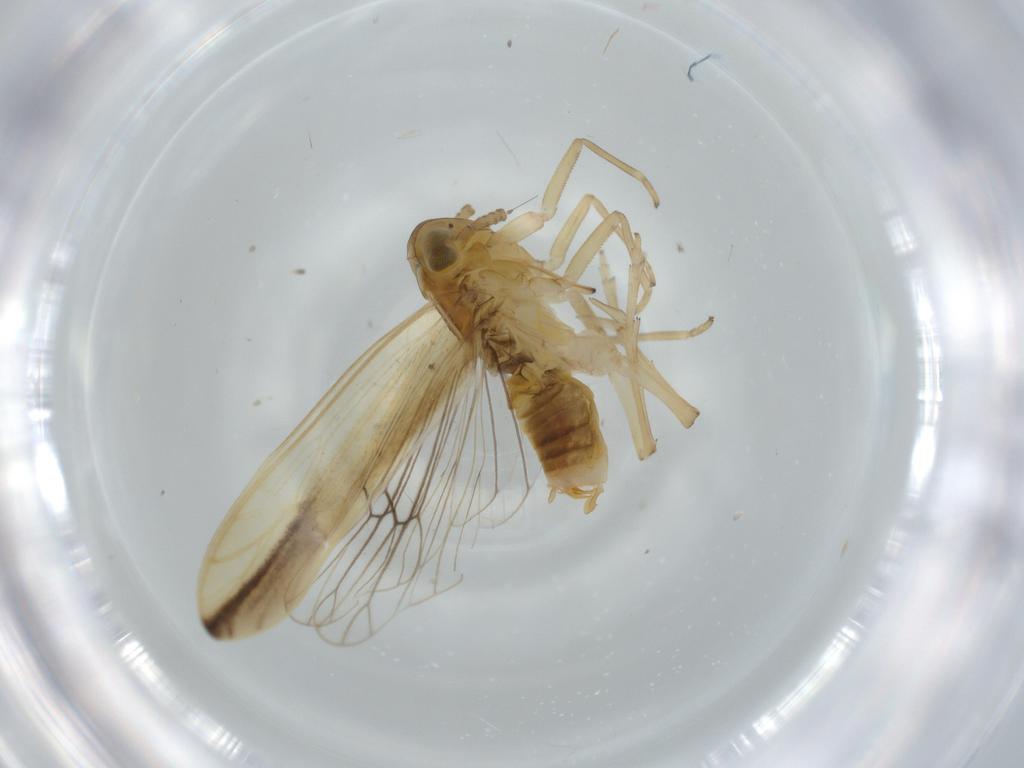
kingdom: Animalia
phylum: Arthropoda
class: Insecta
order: Hemiptera
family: Delphacidae
